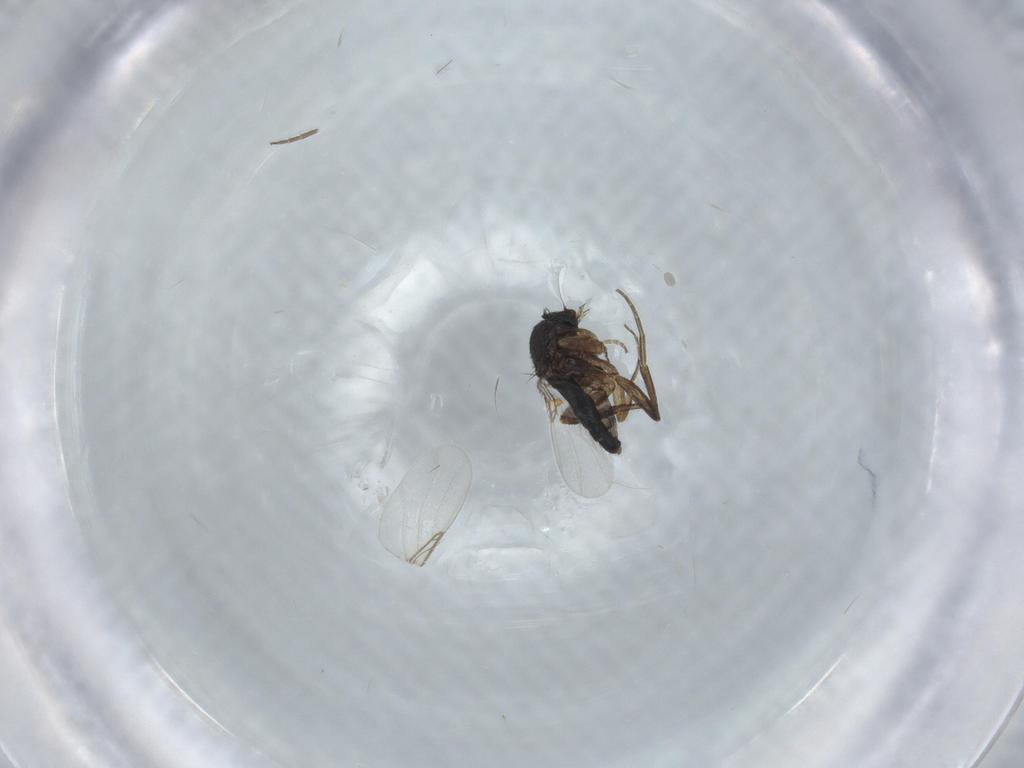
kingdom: Animalia
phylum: Arthropoda
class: Insecta
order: Diptera
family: Phoridae
